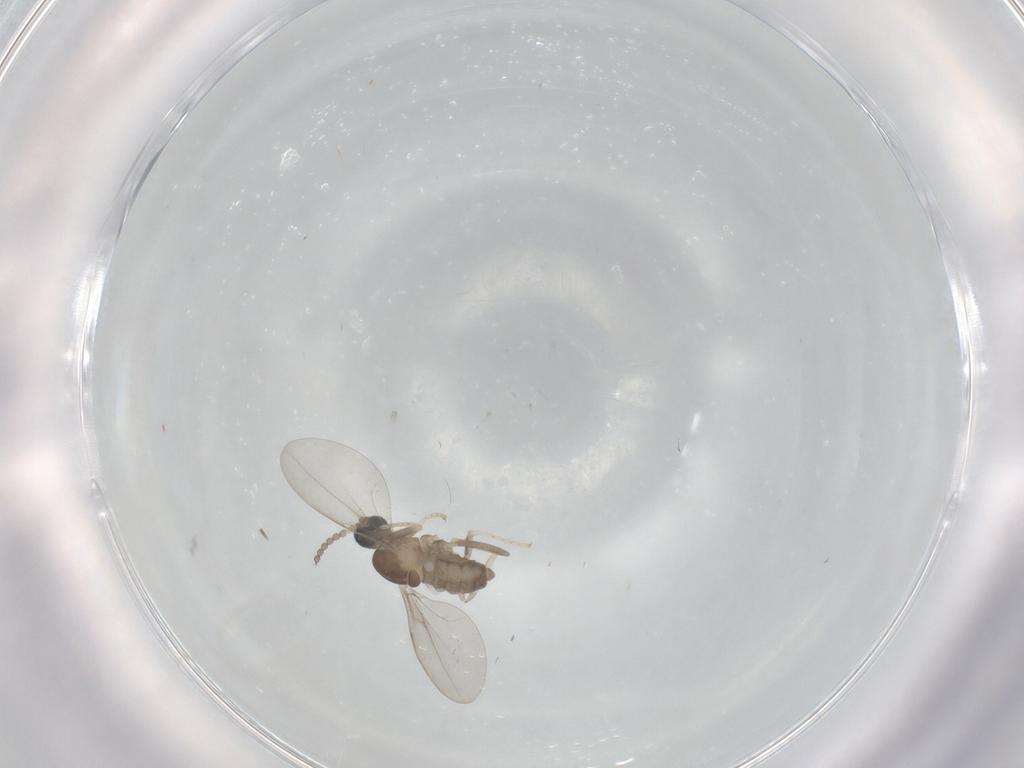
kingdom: Animalia
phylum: Arthropoda
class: Insecta
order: Diptera
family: Cecidomyiidae
